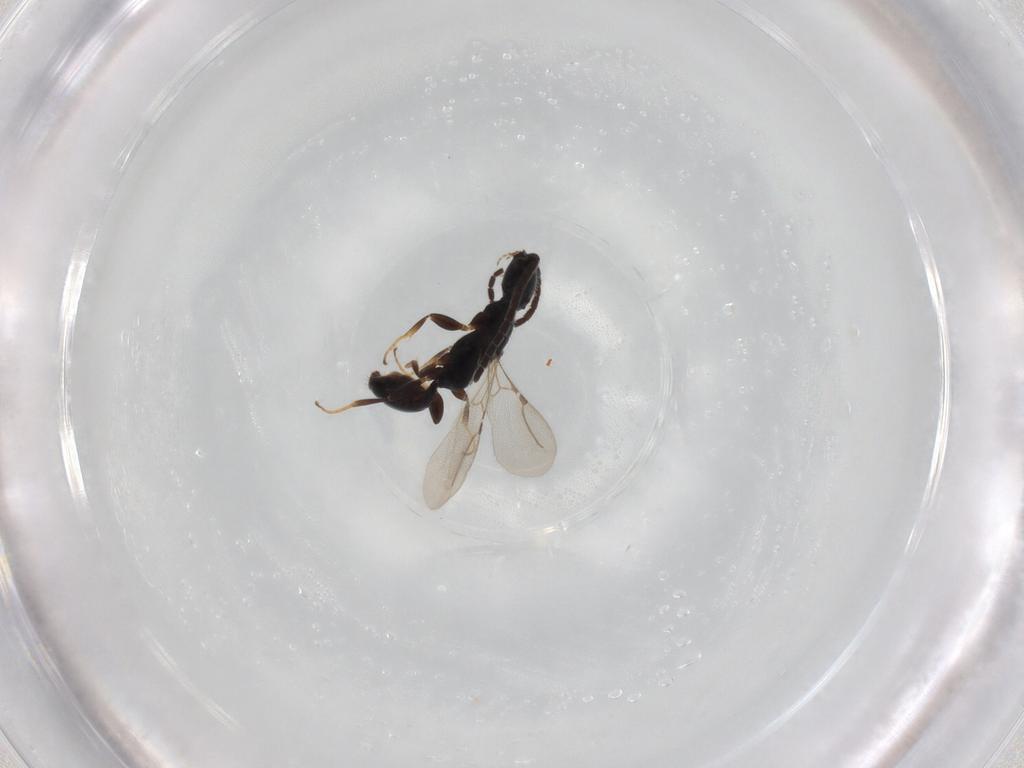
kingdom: Animalia
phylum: Arthropoda
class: Insecta
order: Hymenoptera
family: Bethylidae
